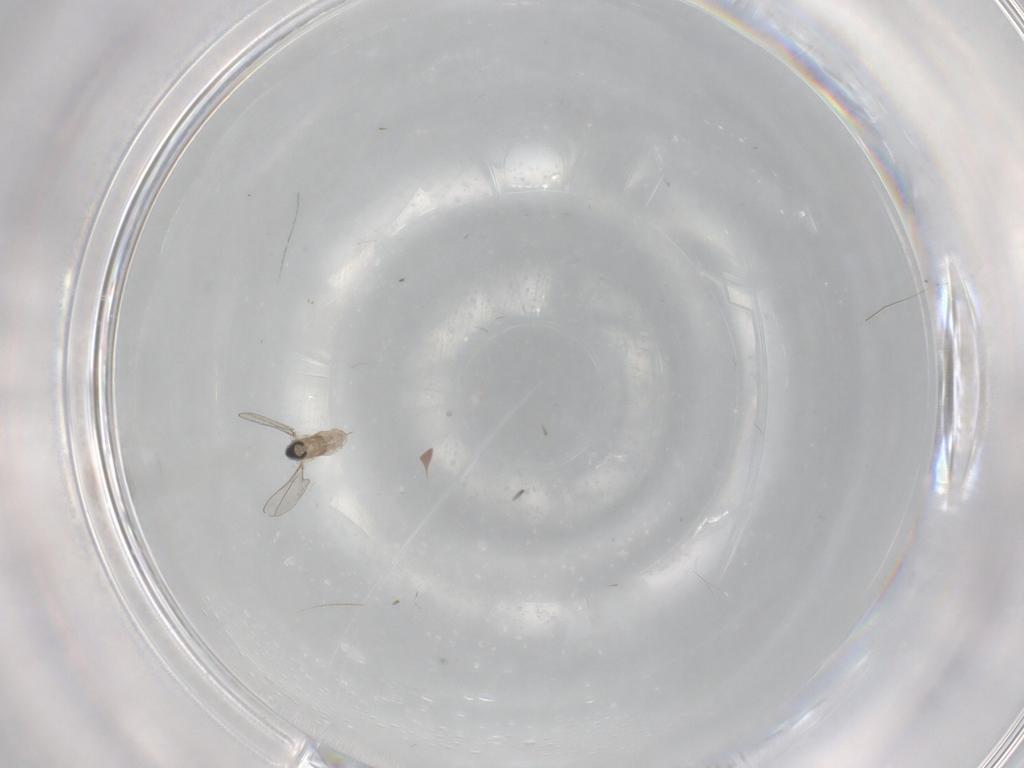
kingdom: Animalia
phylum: Arthropoda
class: Insecta
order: Diptera
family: Cecidomyiidae
